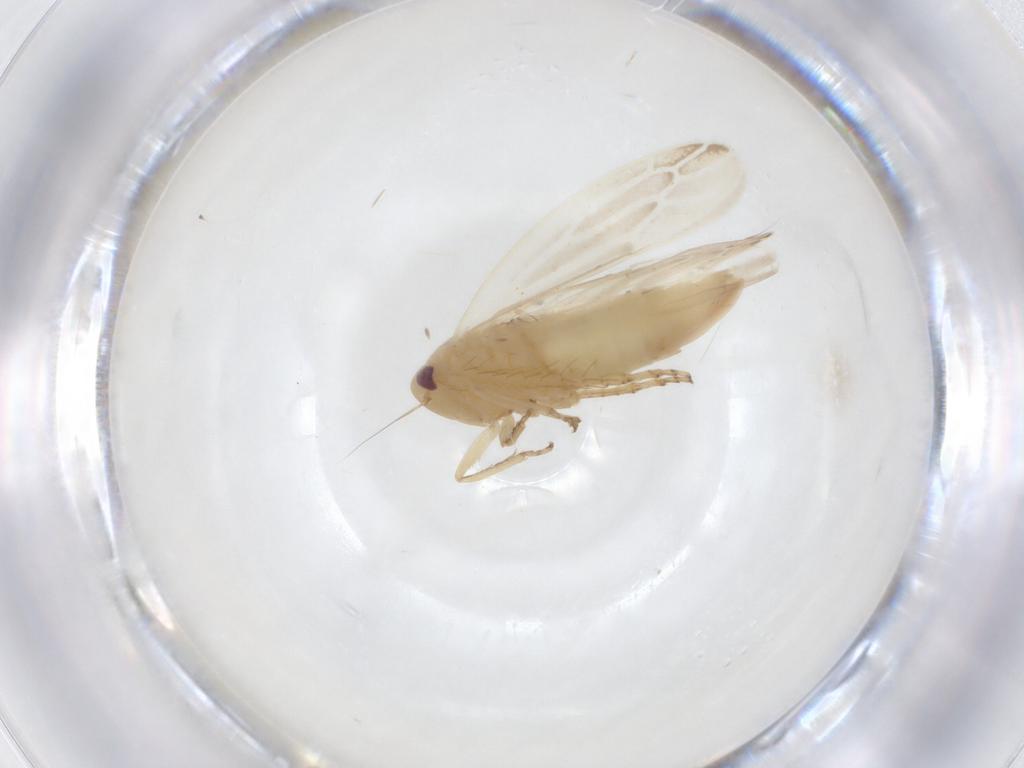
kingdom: Animalia
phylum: Arthropoda
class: Insecta
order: Hemiptera
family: Cicadellidae
